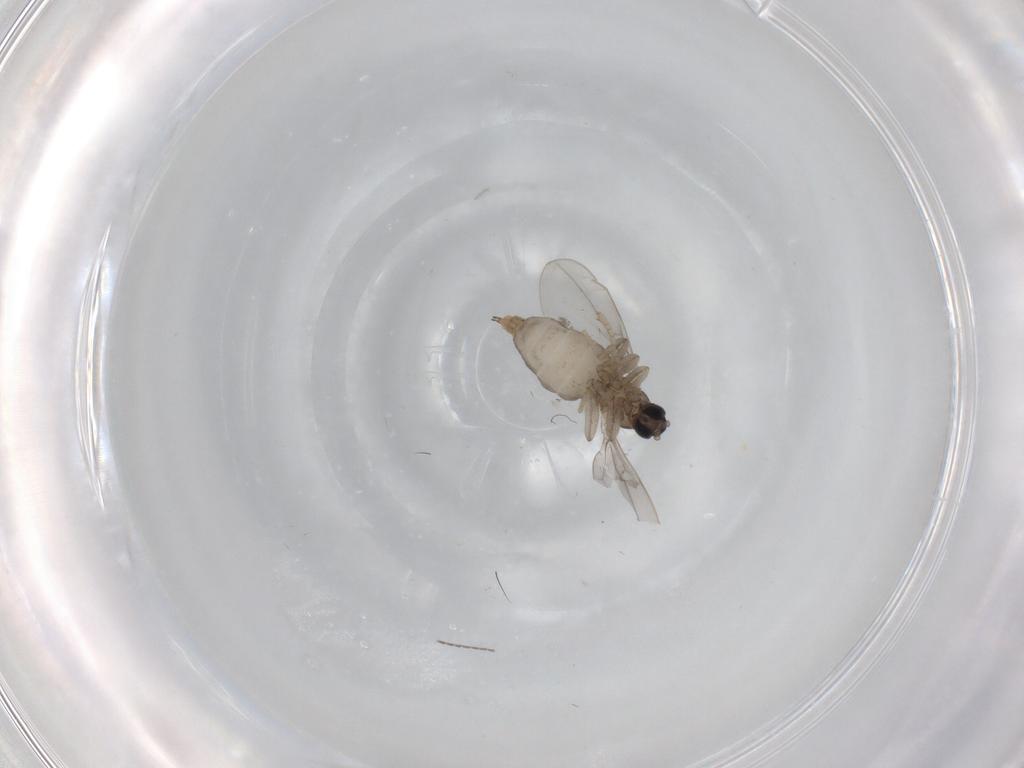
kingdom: Animalia
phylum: Arthropoda
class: Insecta
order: Diptera
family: Cecidomyiidae
